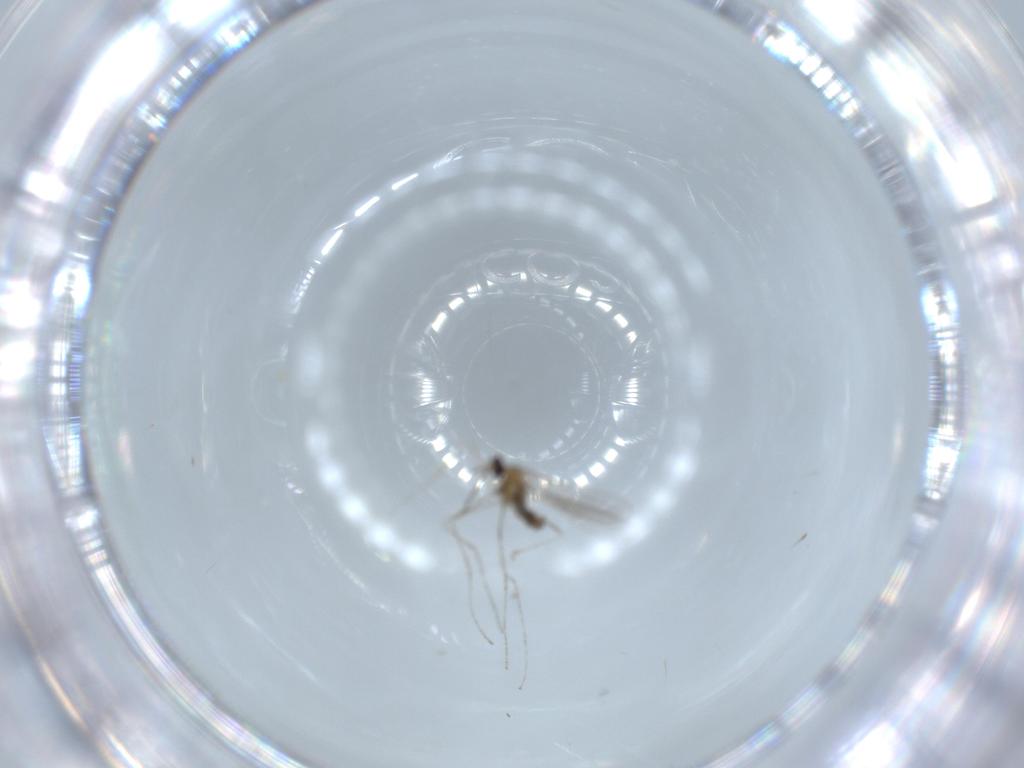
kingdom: Animalia
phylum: Arthropoda
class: Insecta
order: Diptera
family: Cecidomyiidae
